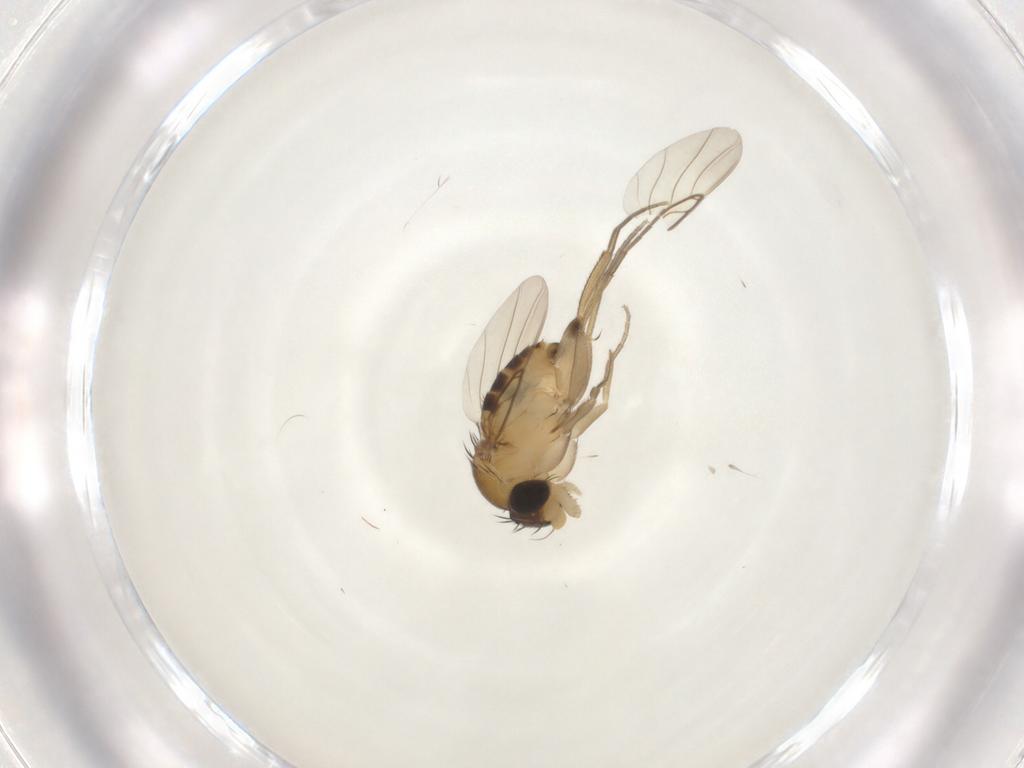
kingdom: Animalia
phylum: Arthropoda
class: Insecta
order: Diptera
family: Phoridae
